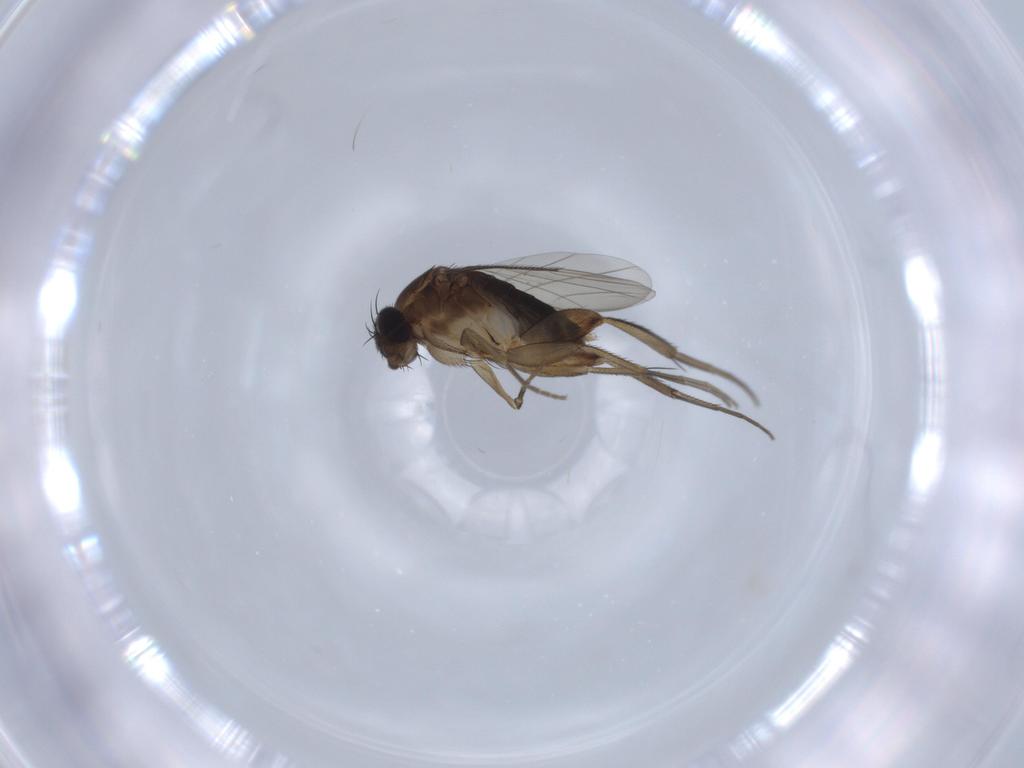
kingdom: Animalia
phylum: Arthropoda
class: Insecta
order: Diptera
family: Phoridae
